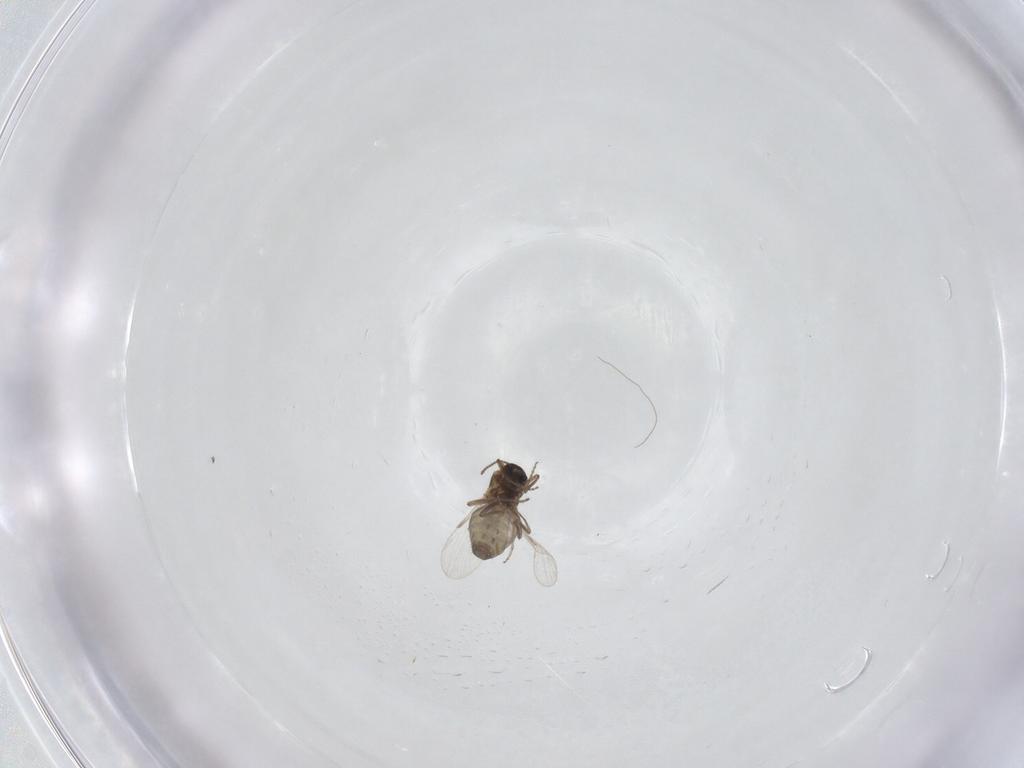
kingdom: Animalia
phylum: Arthropoda
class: Insecta
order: Diptera
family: Ceratopogonidae
